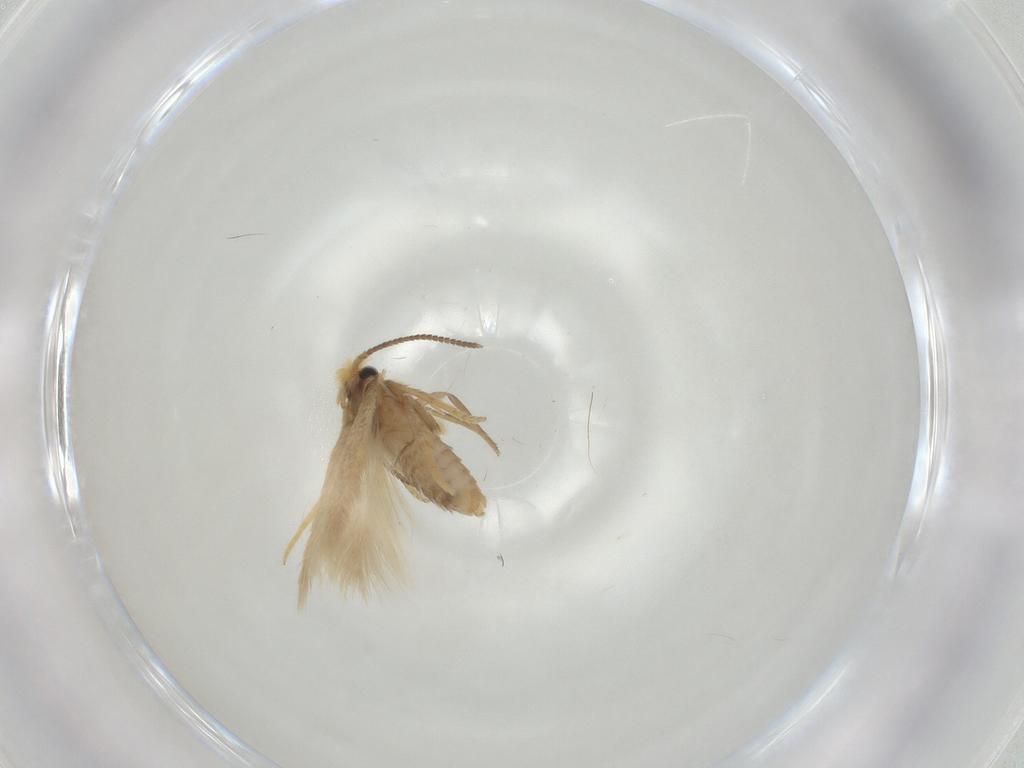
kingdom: Animalia
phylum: Arthropoda
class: Insecta
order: Lepidoptera
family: Nepticulidae
